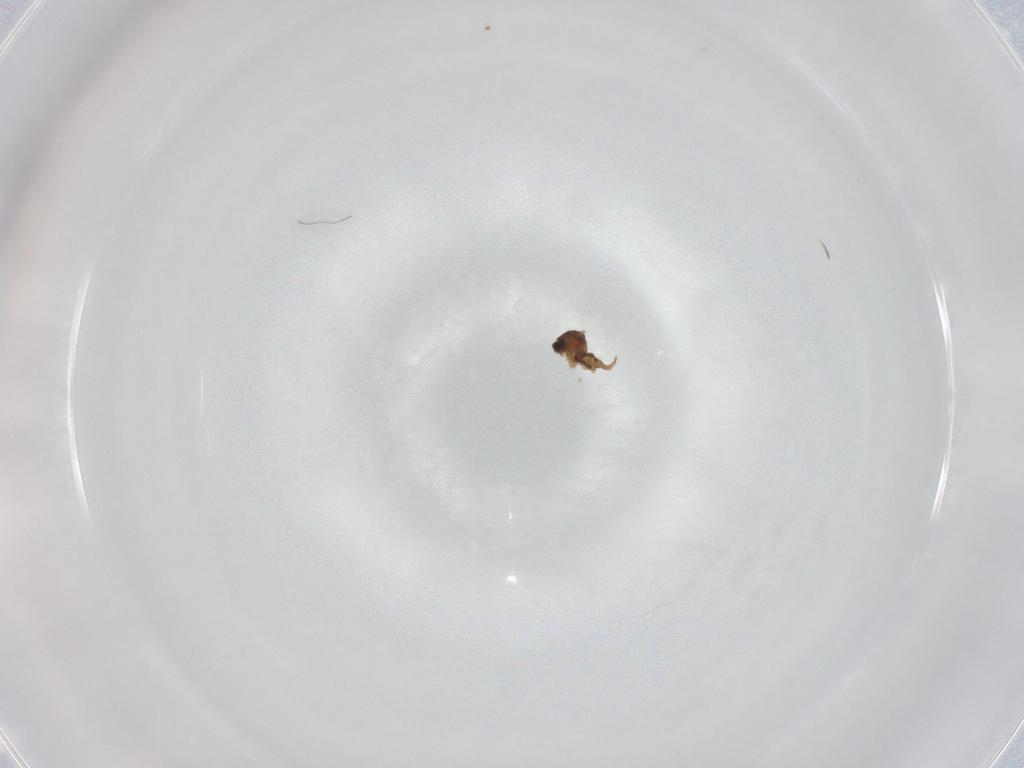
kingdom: Animalia
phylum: Arthropoda
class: Insecta
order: Diptera
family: Cecidomyiidae
